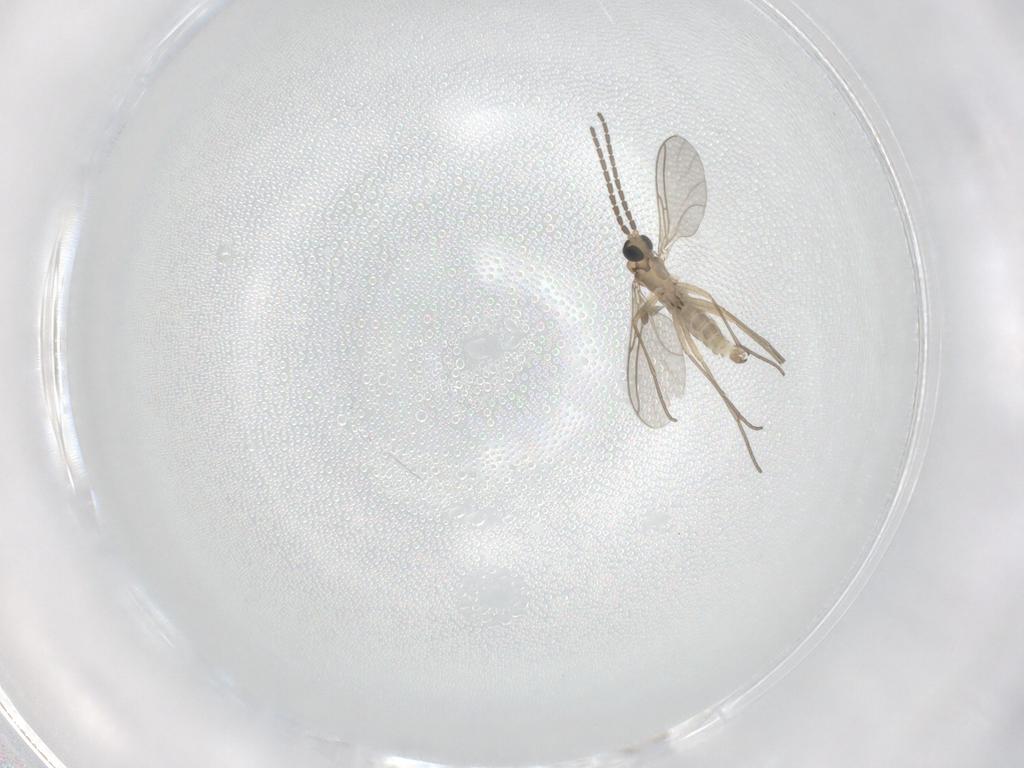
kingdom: Animalia
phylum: Arthropoda
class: Insecta
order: Diptera
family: Sciaridae
